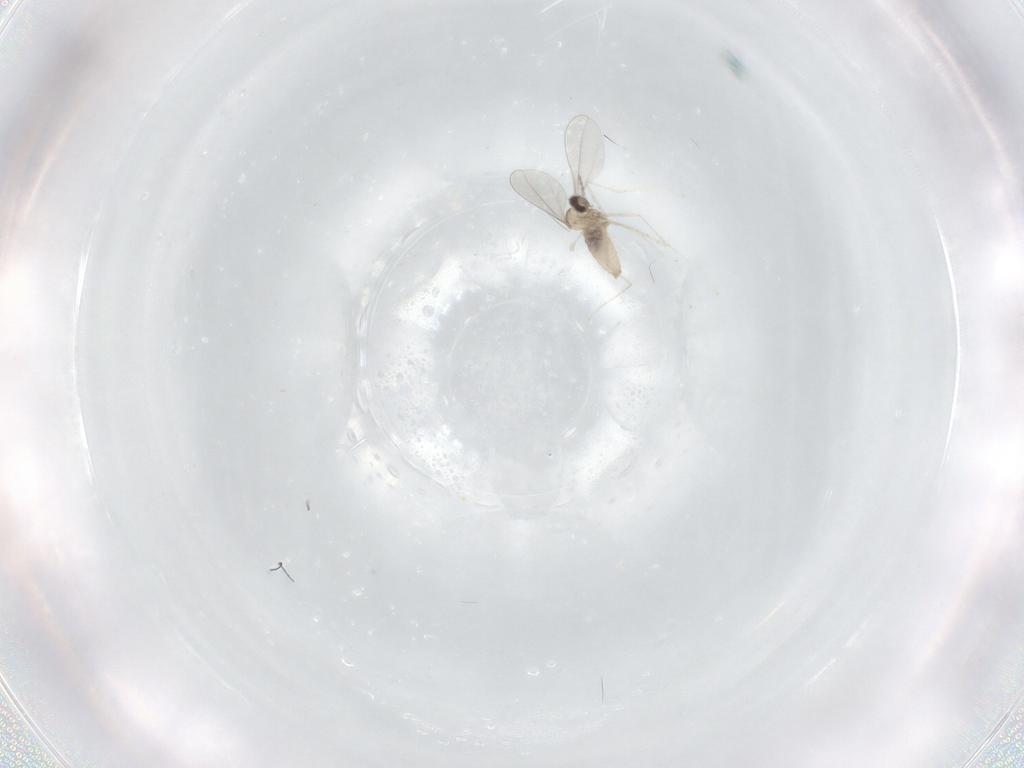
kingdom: Animalia
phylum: Arthropoda
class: Insecta
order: Diptera
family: Cecidomyiidae
